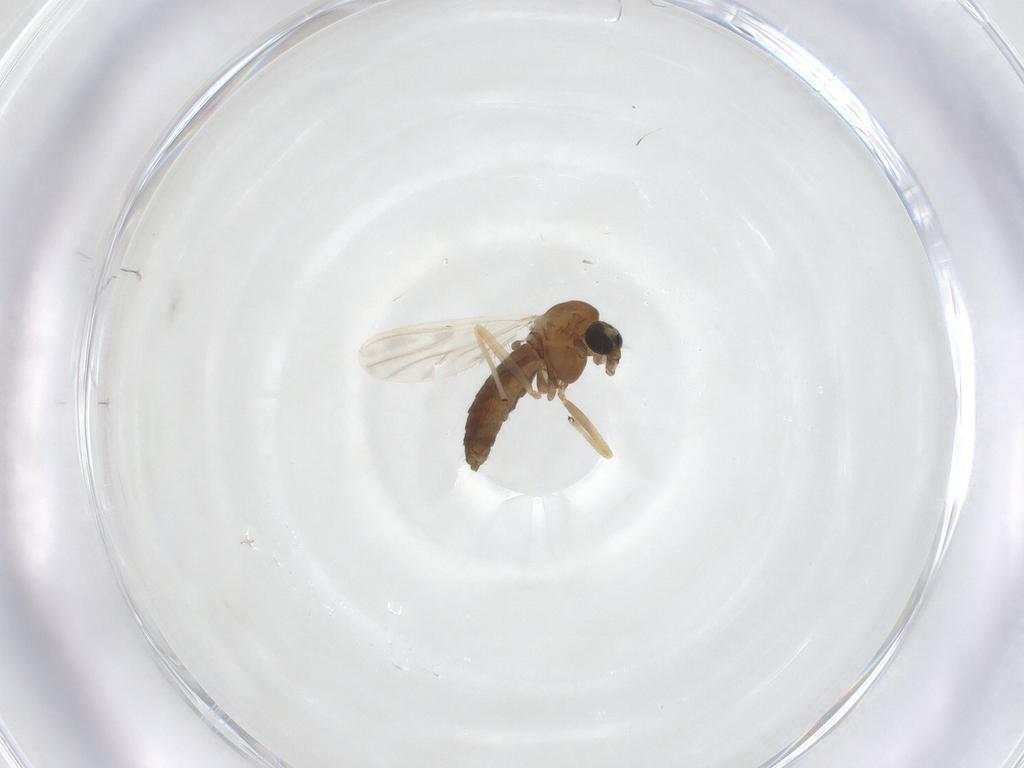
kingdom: Animalia
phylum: Arthropoda
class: Insecta
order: Diptera
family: Chironomidae
